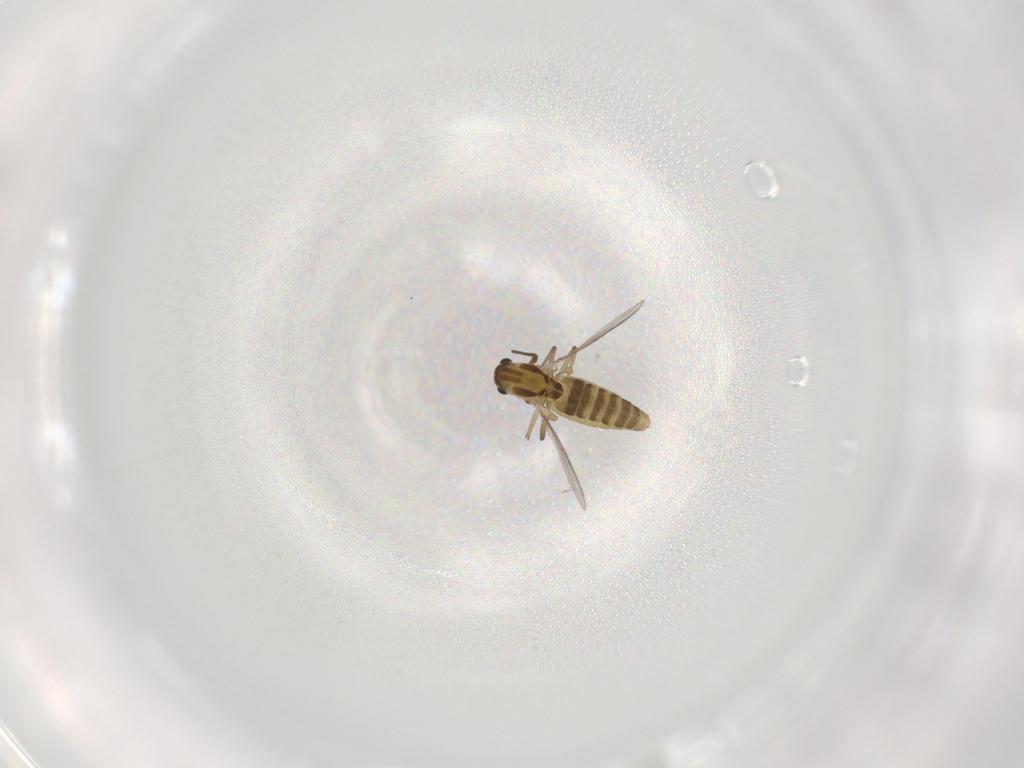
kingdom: Animalia
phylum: Arthropoda
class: Insecta
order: Diptera
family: Chironomidae
